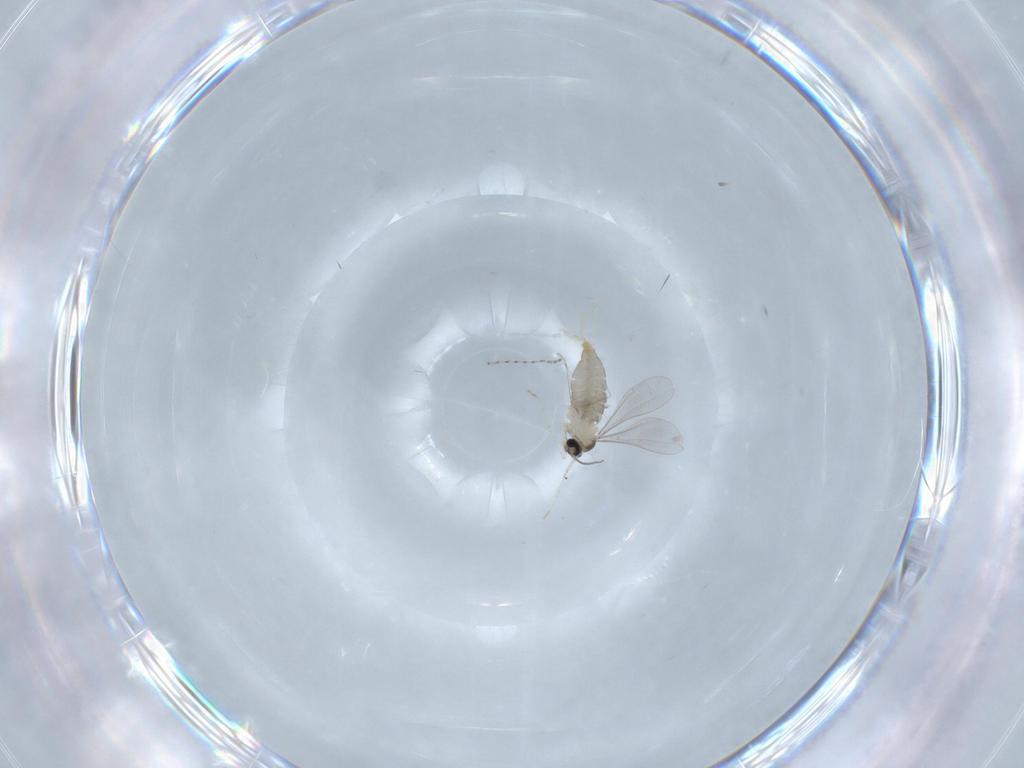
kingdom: Animalia
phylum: Arthropoda
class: Insecta
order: Diptera
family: Cecidomyiidae
